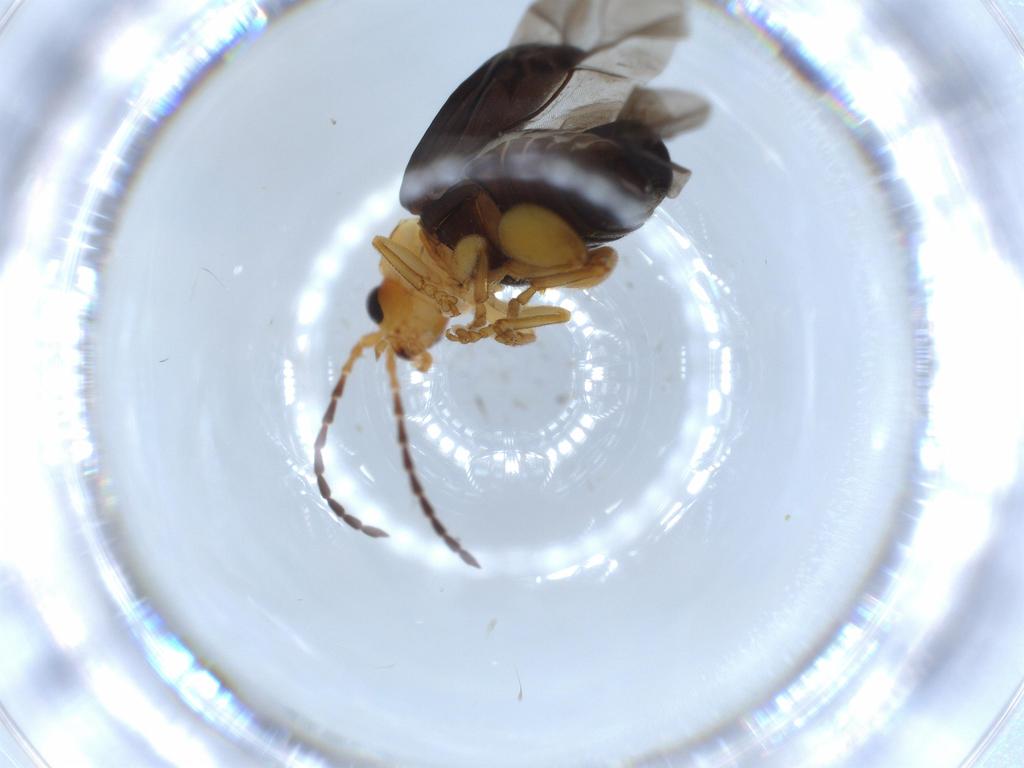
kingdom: Animalia
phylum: Arthropoda
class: Insecta
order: Coleoptera
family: Chrysomelidae
